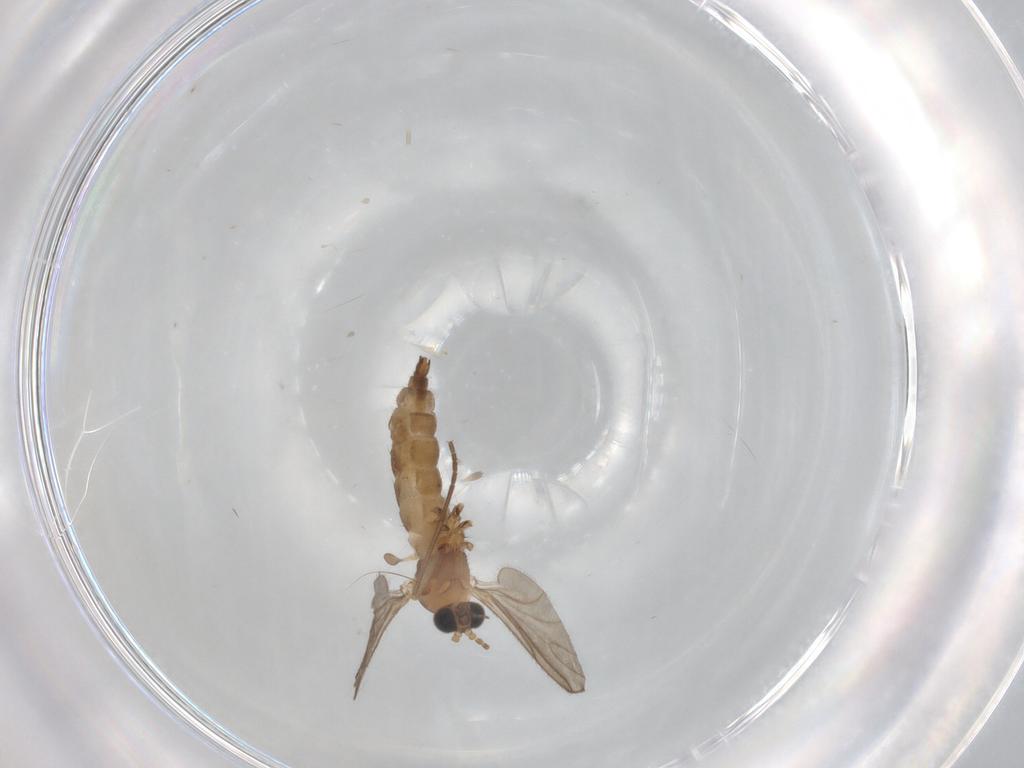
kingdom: Animalia
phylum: Arthropoda
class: Insecta
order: Diptera
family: Sciaridae
